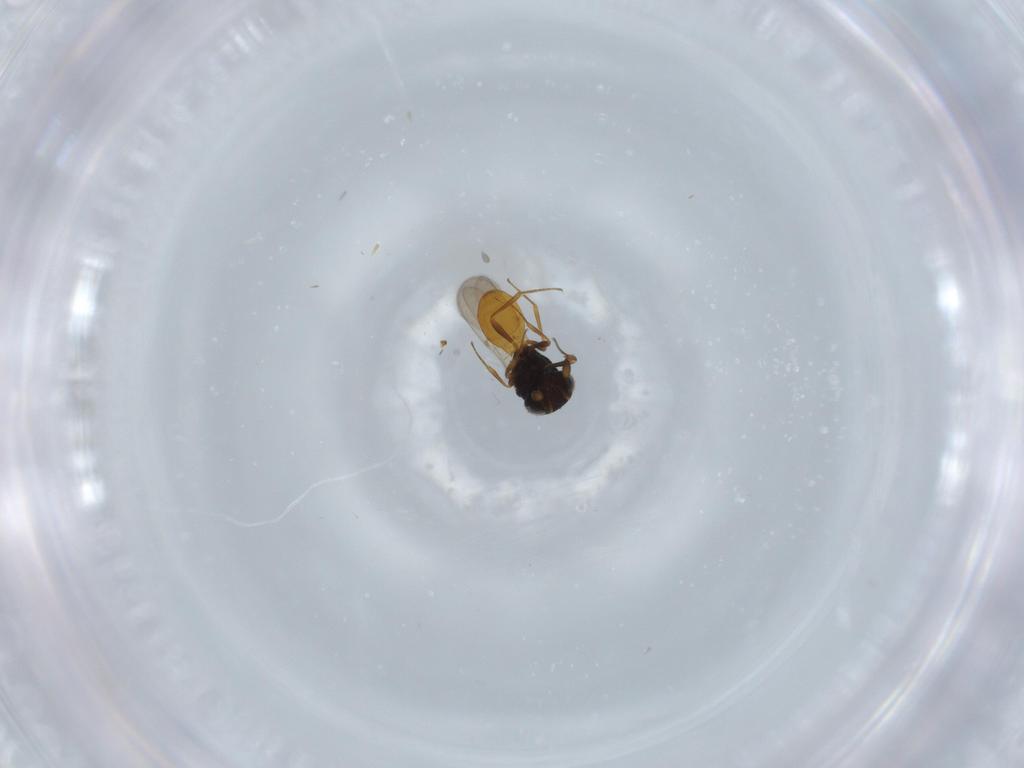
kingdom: Animalia
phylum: Arthropoda
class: Insecta
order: Hymenoptera
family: Scelionidae
